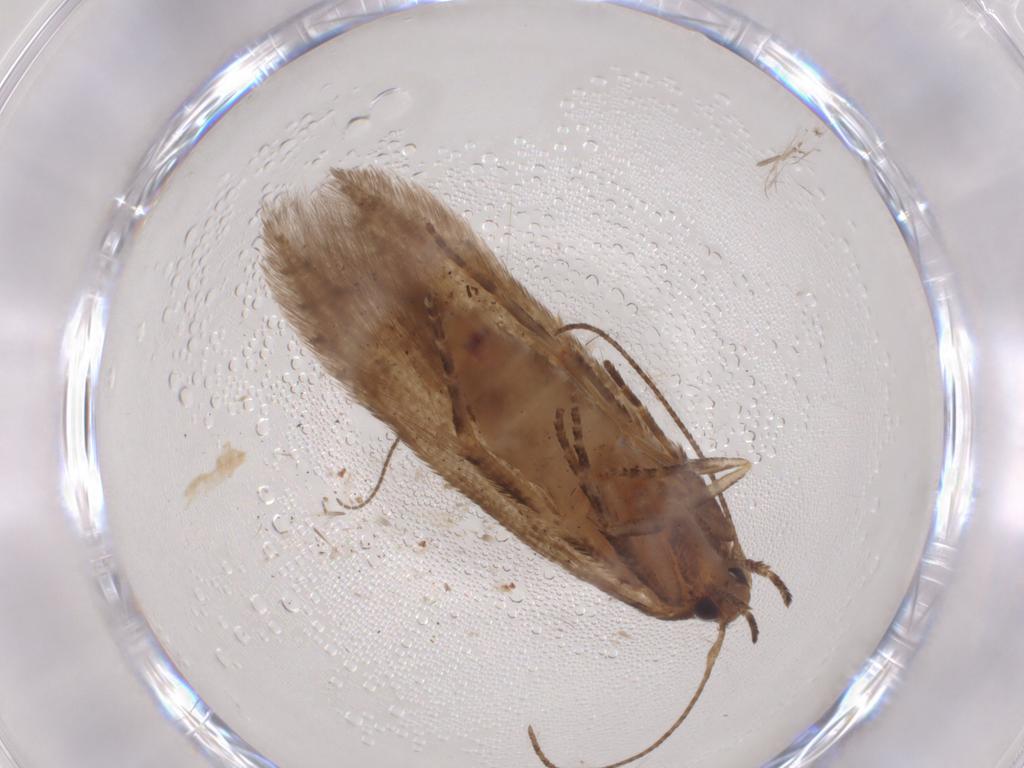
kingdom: Animalia
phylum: Arthropoda
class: Insecta
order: Lepidoptera
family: Cosmopterigidae
